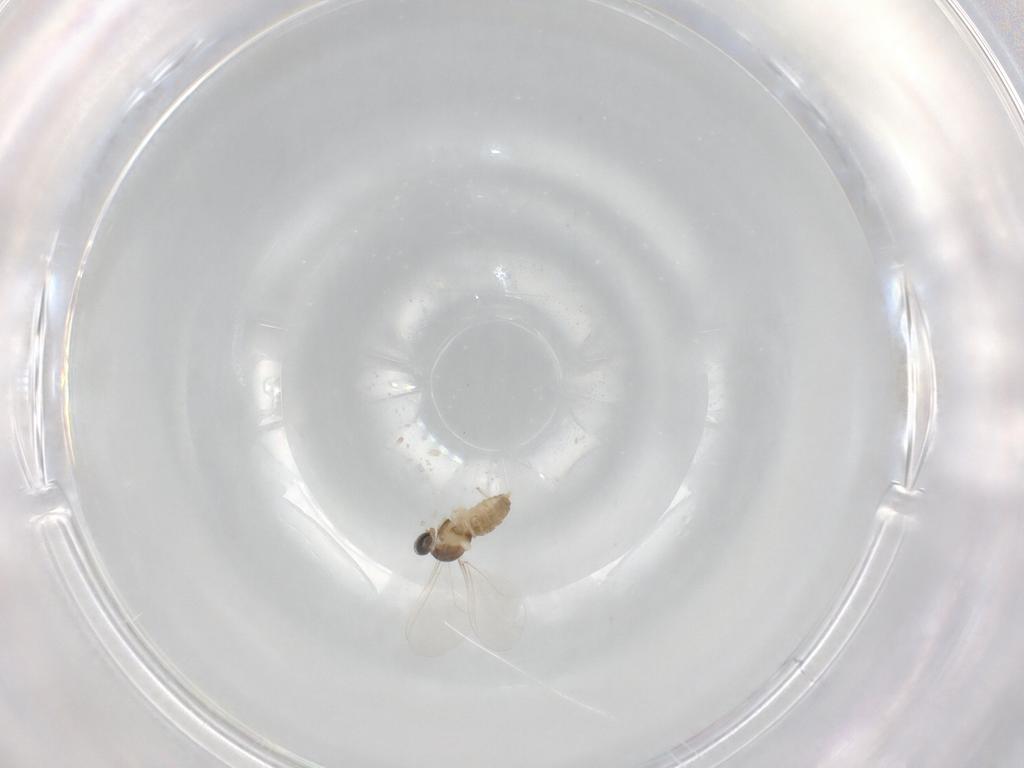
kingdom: Animalia
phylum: Arthropoda
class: Insecta
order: Diptera
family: Cecidomyiidae
